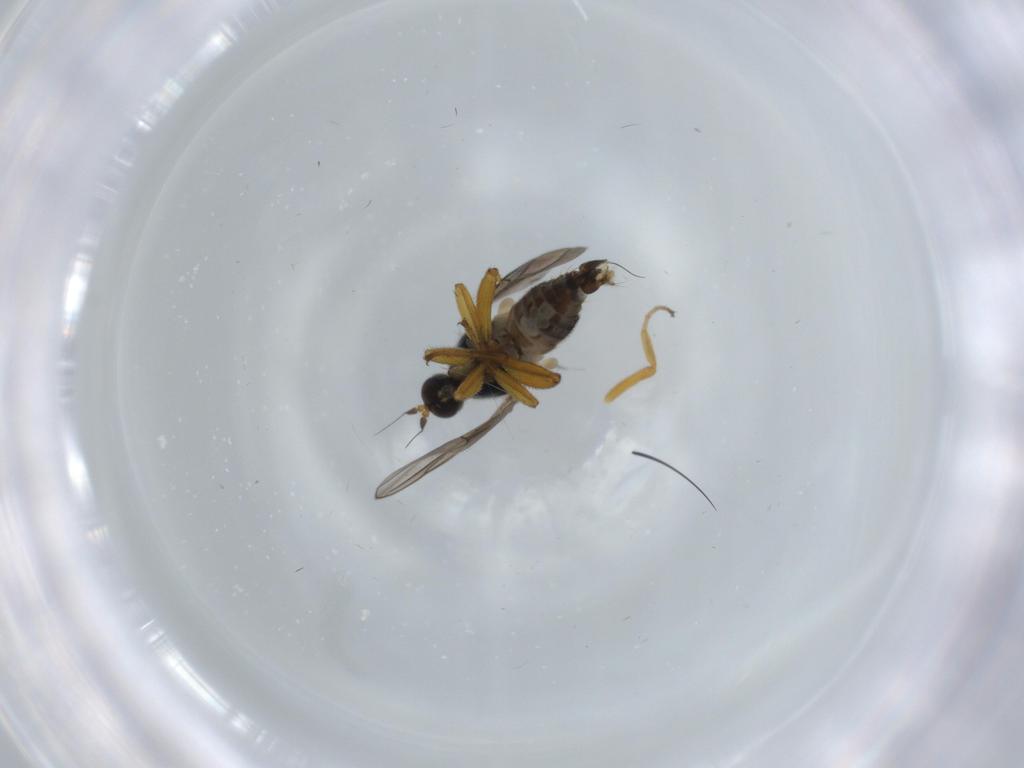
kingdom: Animalia
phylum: Arthropoda
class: Insecta
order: Diptera
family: Hybotidae
